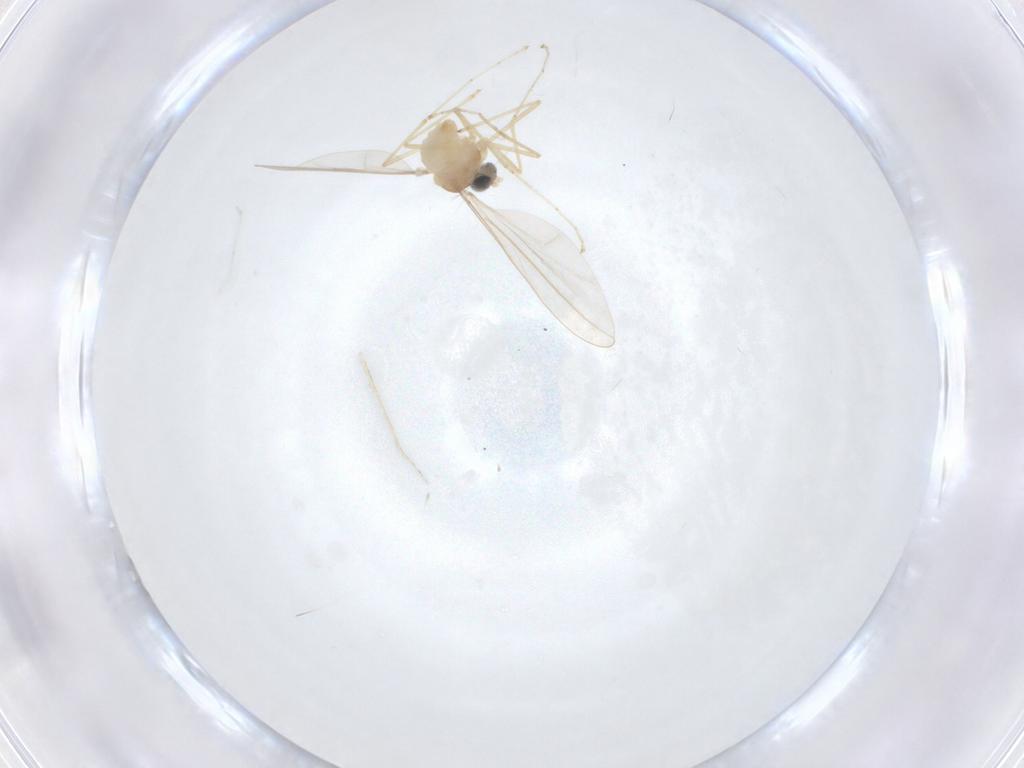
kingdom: Animalia
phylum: Arthropoda
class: Insecta
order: Diptera
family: Cecidomyiidae
